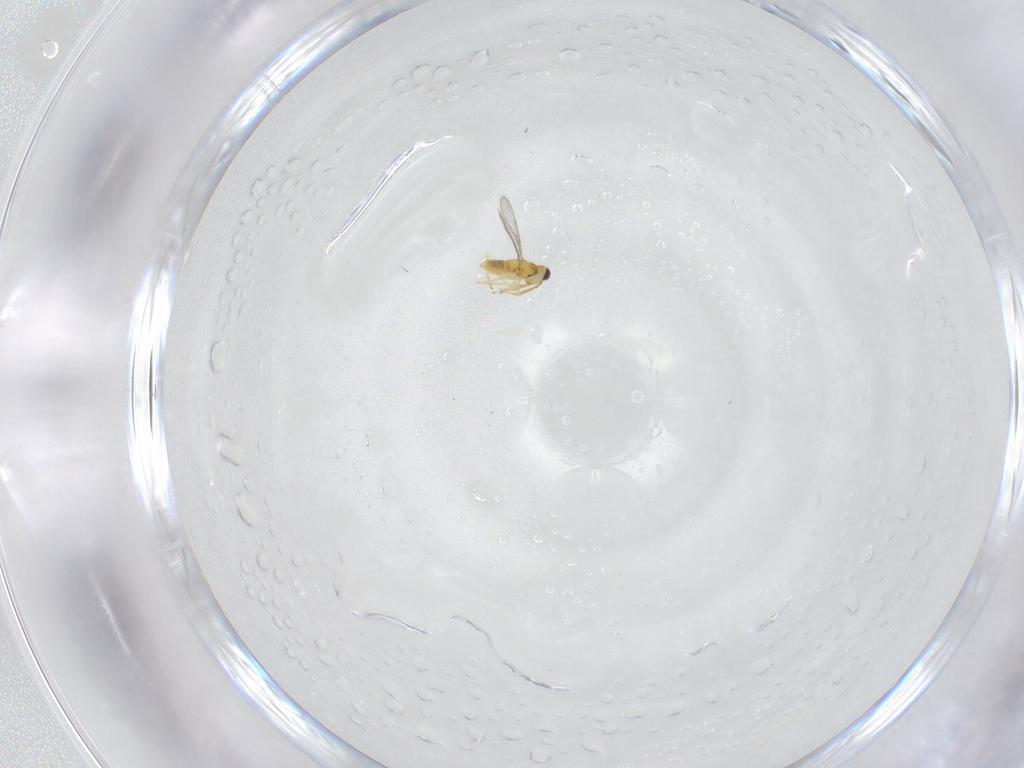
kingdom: Animalia
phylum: Arthropoda
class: Insecta
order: Hymenoptera
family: Aphelinidae
